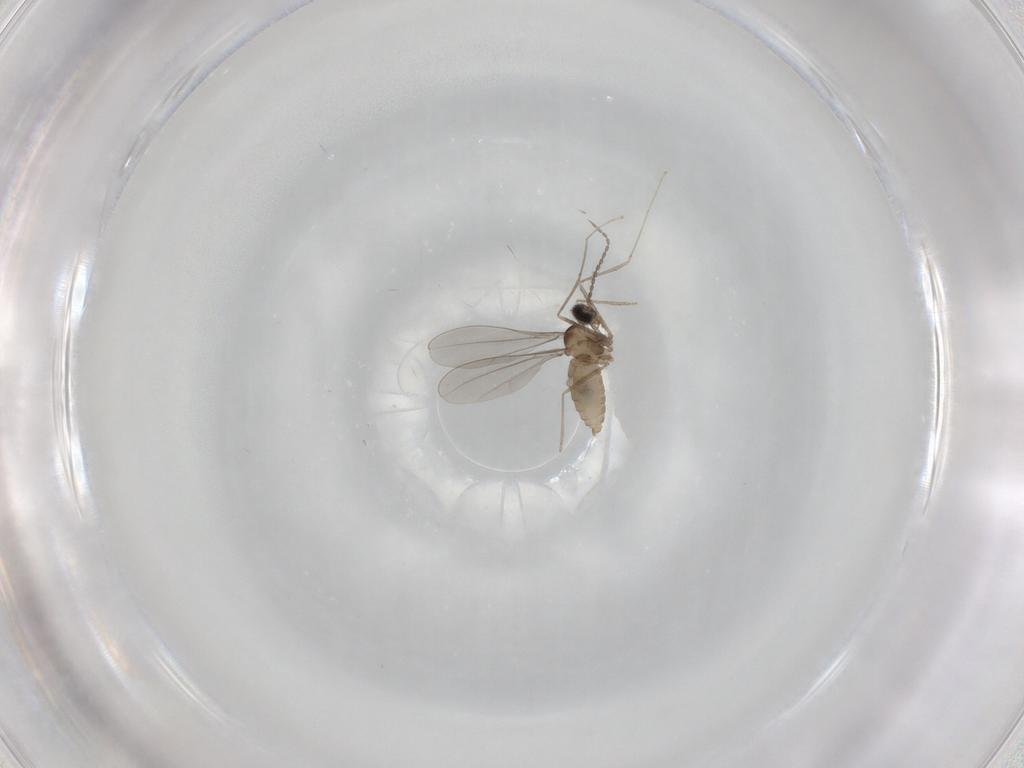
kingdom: Animalia
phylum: Arthropoda
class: Insecta
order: Diptera
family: Cecidomyiidae
